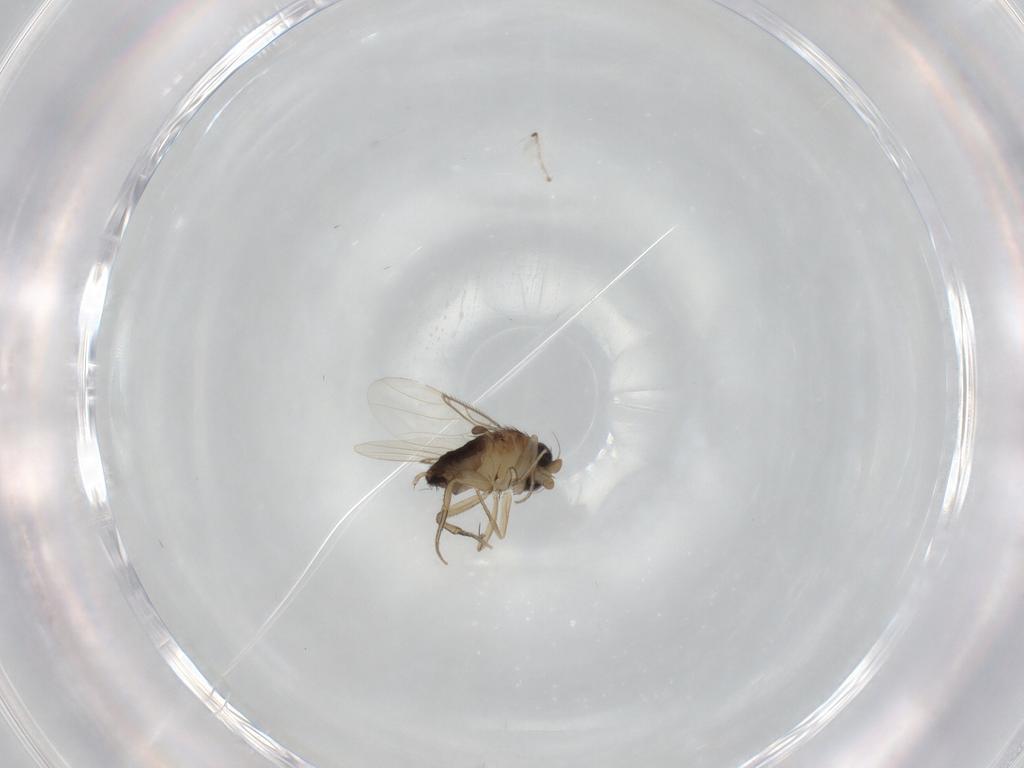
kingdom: Animalia
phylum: Arthropoda
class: Insecta
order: Diptera
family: Phoridae
